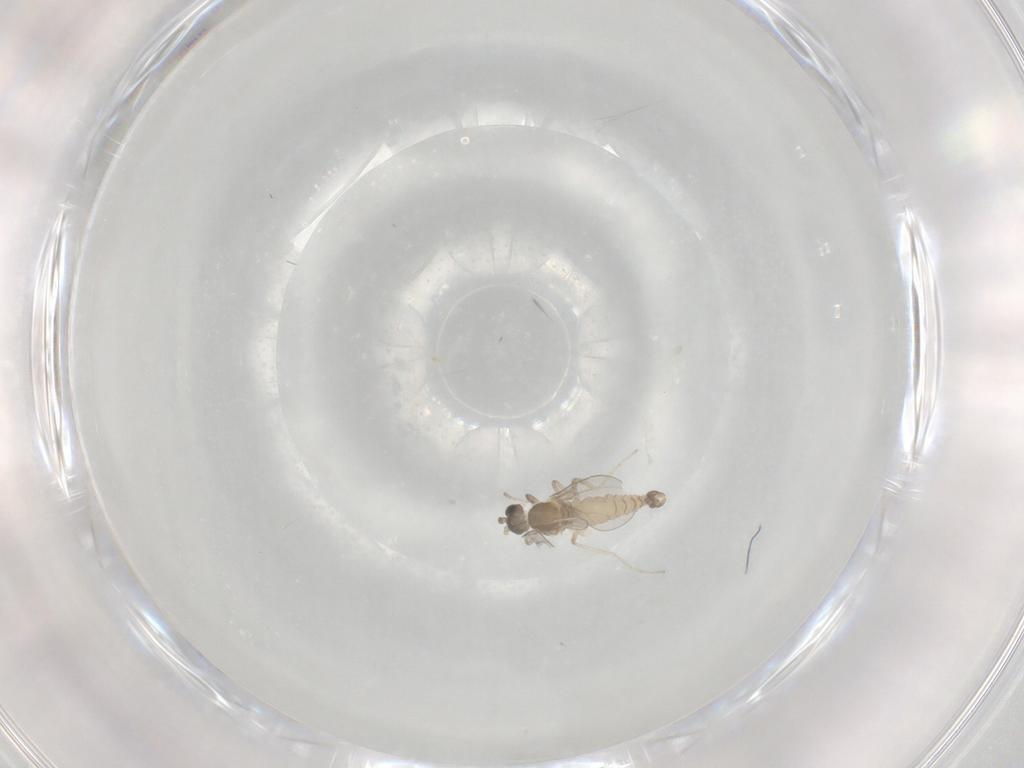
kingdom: Animalia
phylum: Arthropoda
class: Insecta
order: Diptera
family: Cecidomyiidae
